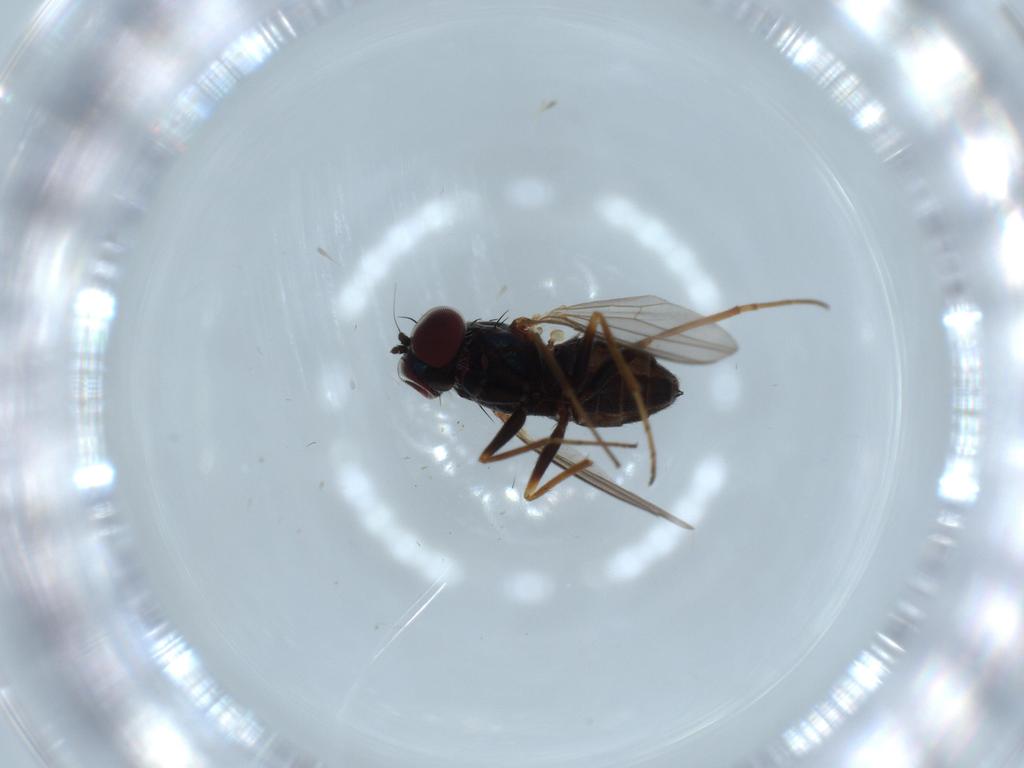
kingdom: Animalia
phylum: Arthropoda
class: Insecta
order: Diptera
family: Dolichopodidae
